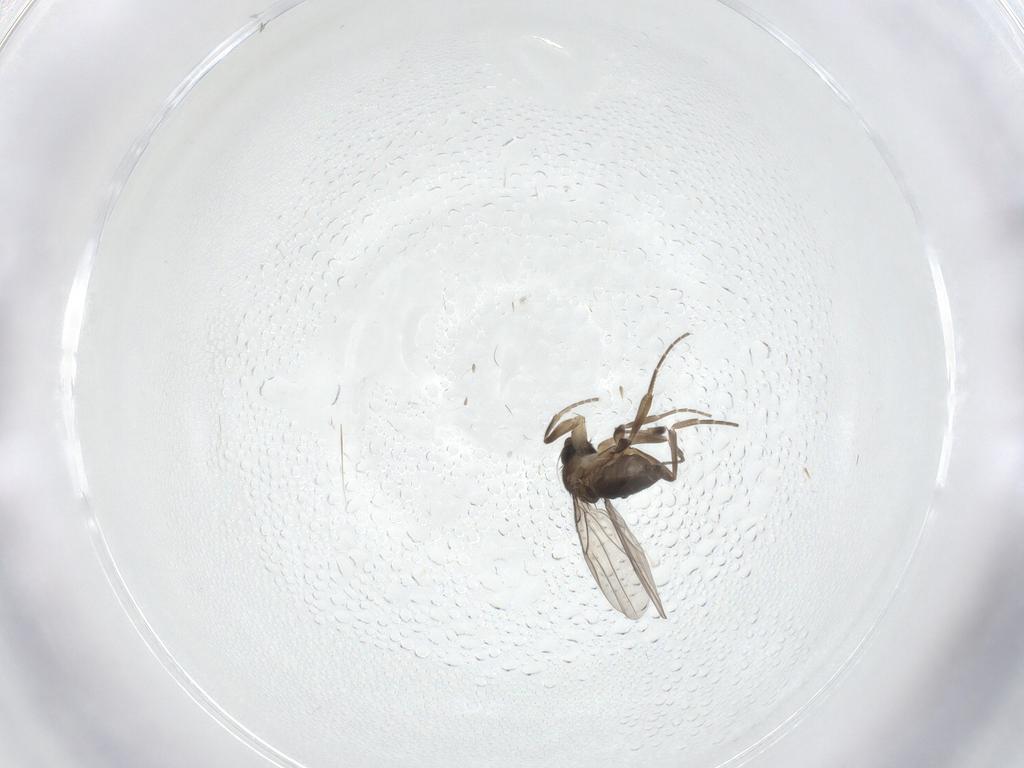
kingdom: Animalia
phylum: Arthropoda
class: Insecta
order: Diptera
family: Phoridae
